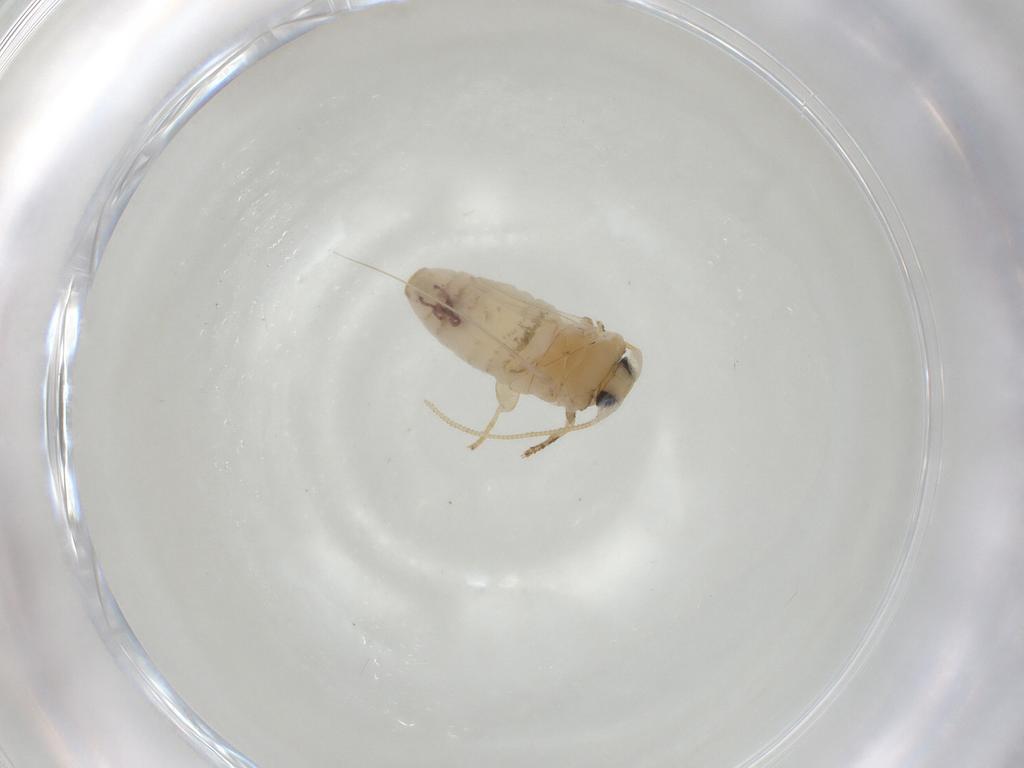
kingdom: Animalia
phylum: Arthropoda
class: Insecta
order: Lepidoptera
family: Nepticulidae
